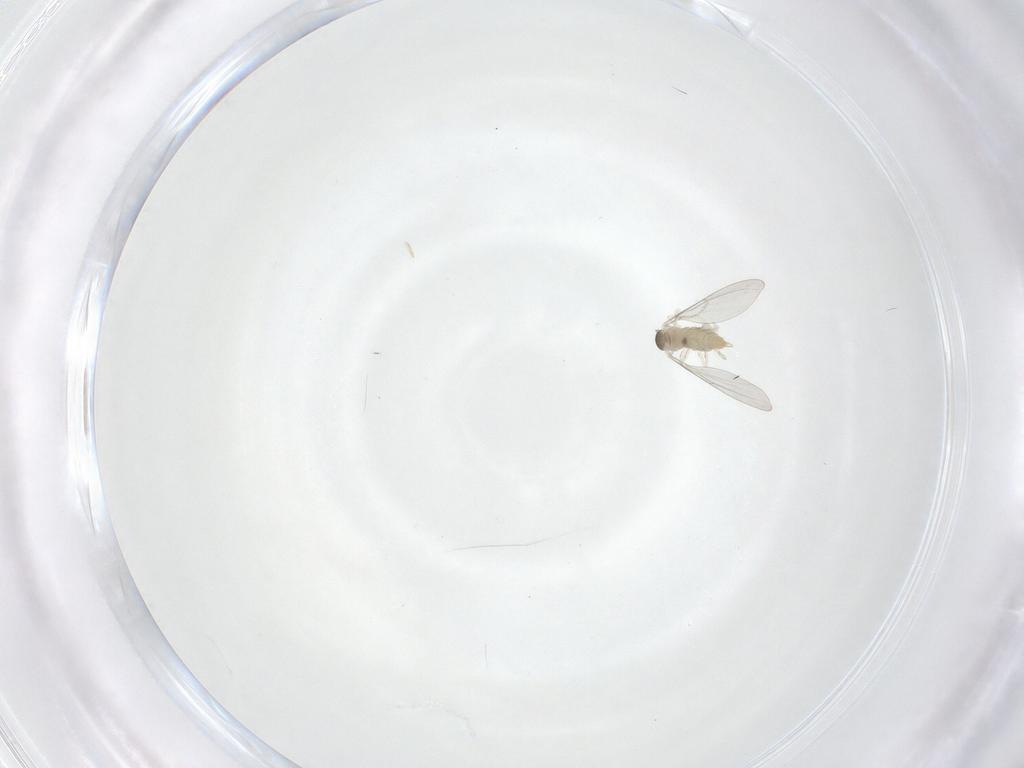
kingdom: Animalia
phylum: Arthropoda
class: Insecta
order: Diptera
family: Cecidomyiidae
